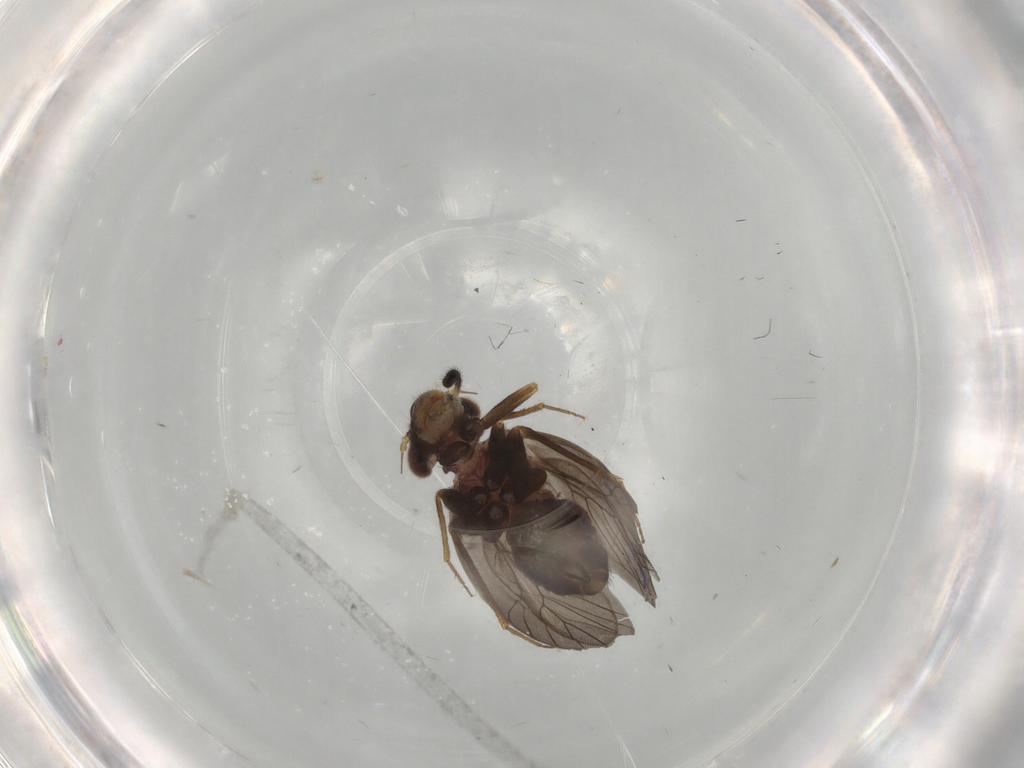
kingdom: Animalia
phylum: Arthropoda
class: Insecta
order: Psocodea
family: Lepidopsocidae
